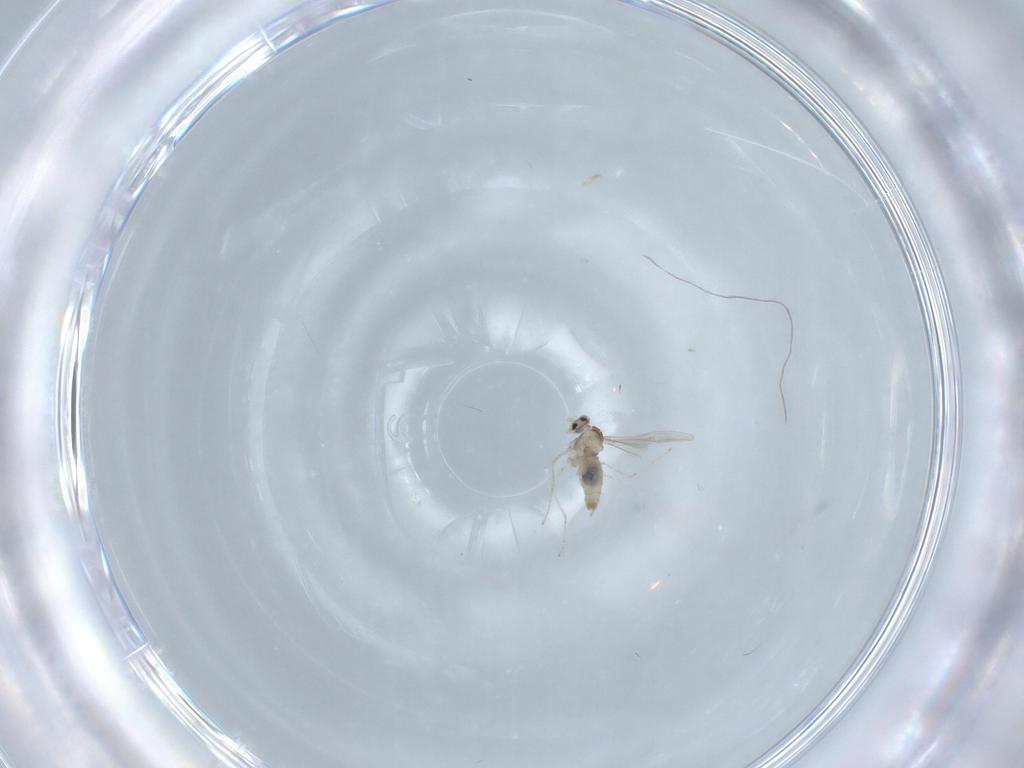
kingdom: Animalia
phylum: Arthropoda
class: Insecta
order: Diptera
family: Cecidomyiidae
